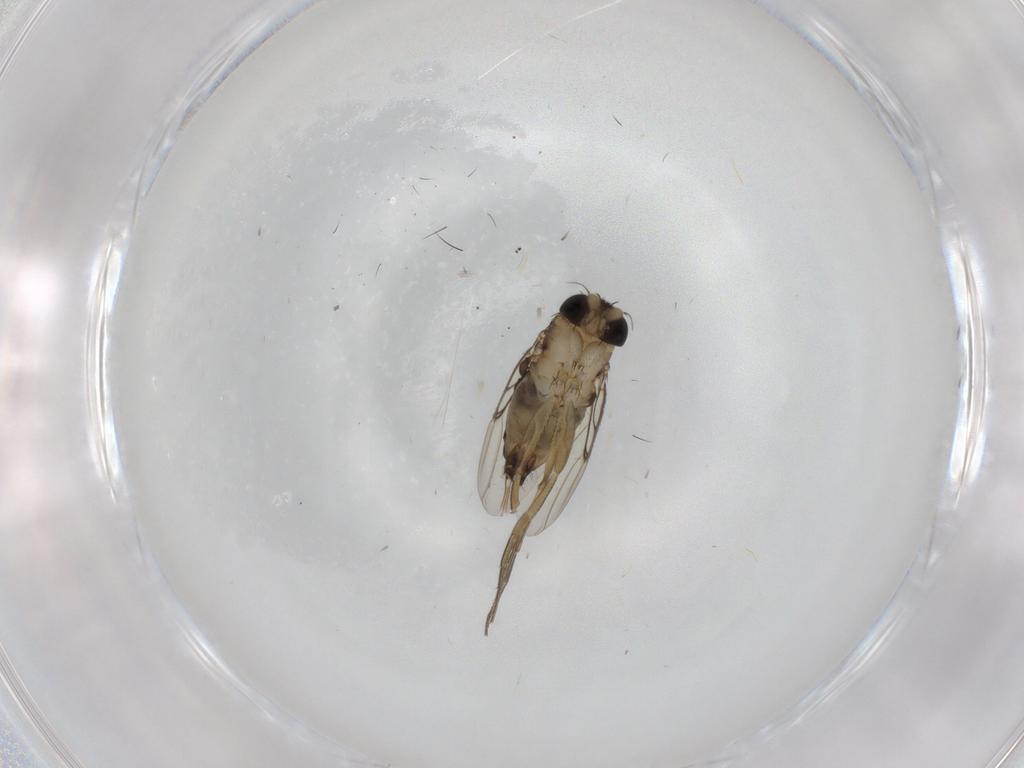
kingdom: Animalia
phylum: Arthropoda
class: Insecta
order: Diptera
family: Phoridae
